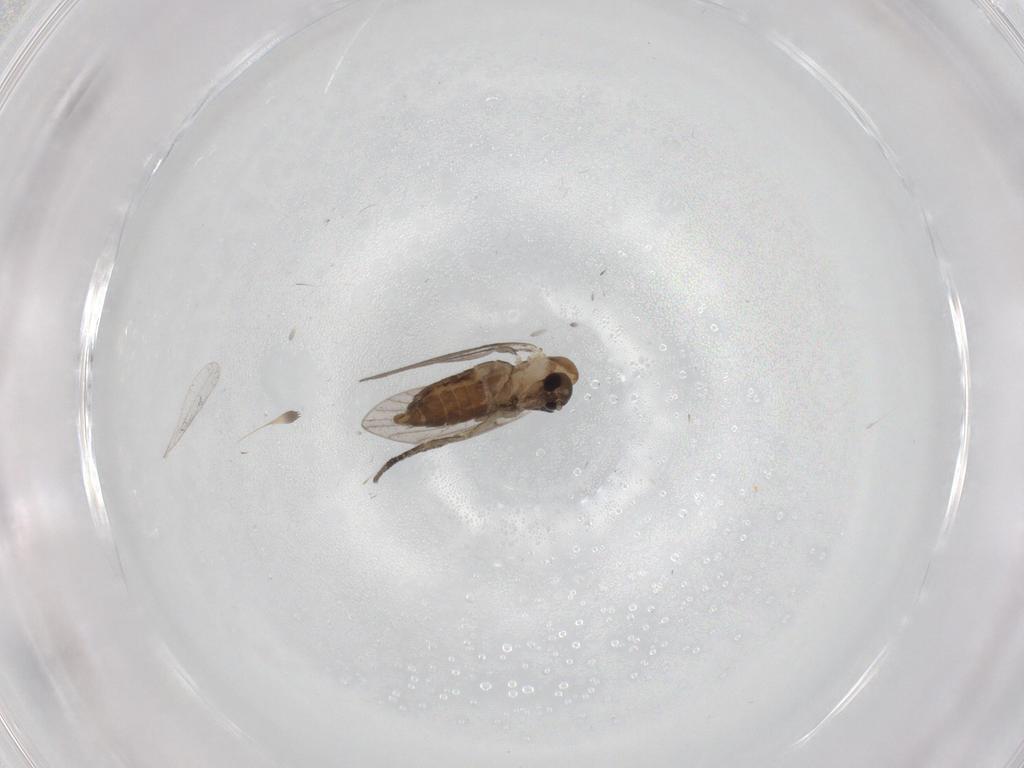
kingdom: Animalia
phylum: Arthropoda
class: Insecta
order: Diptera
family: Psychodidae
